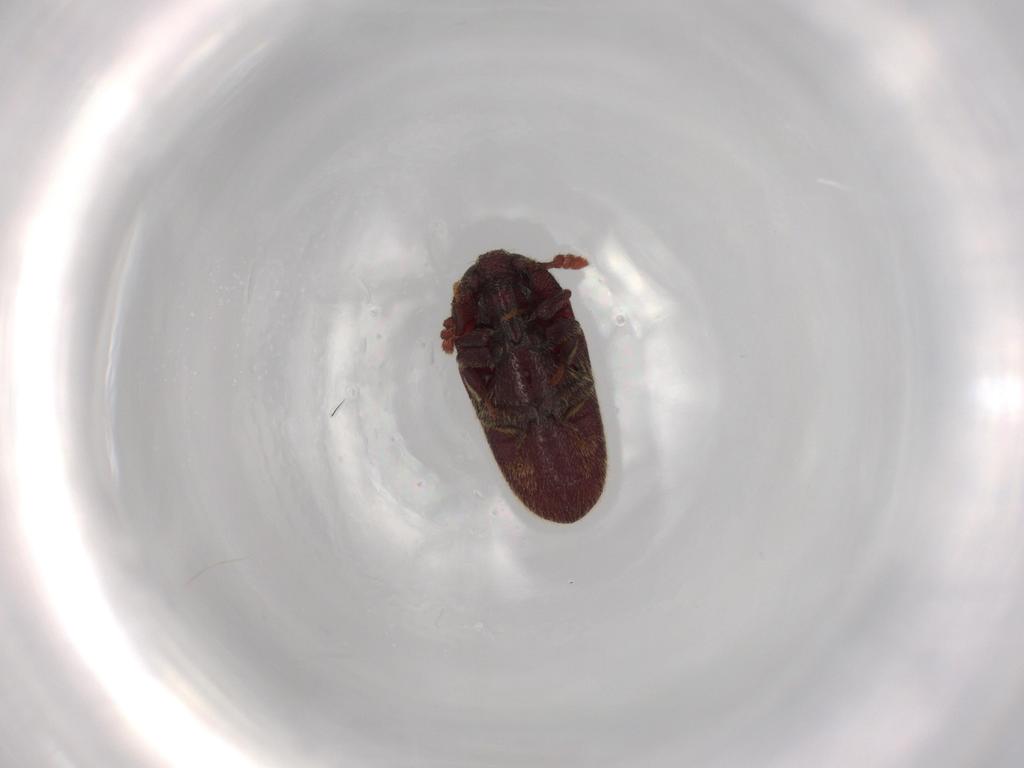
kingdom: Animalia
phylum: Arthropoda
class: Insecta
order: Coleoptera
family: Throscidae
